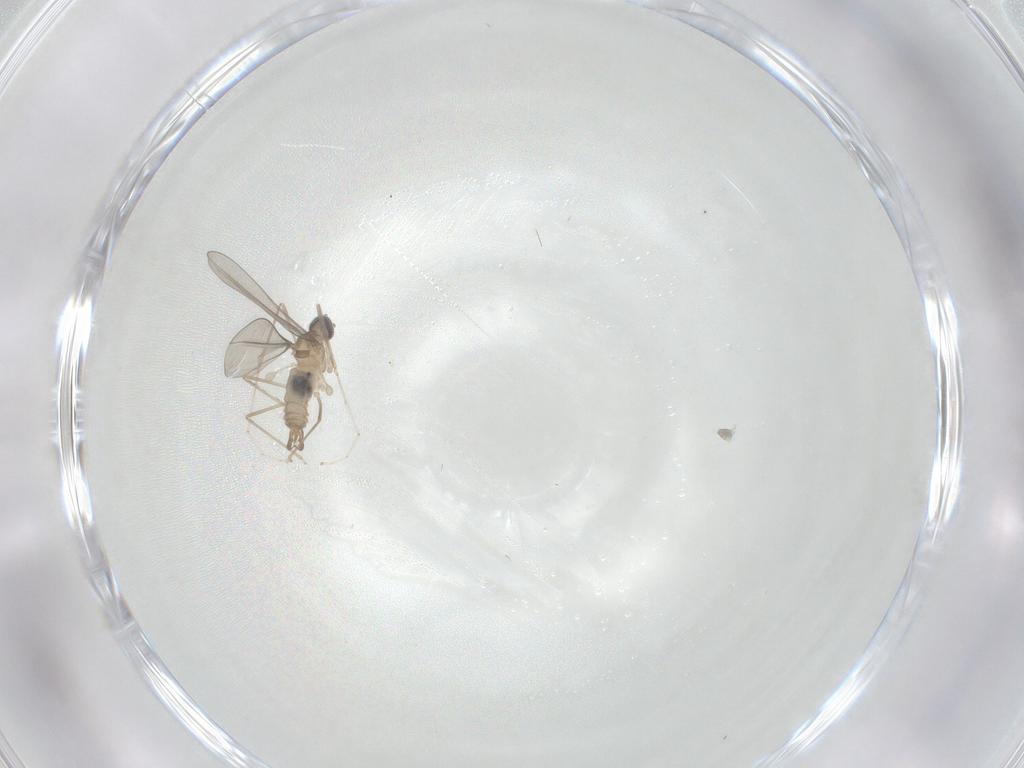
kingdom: Animalia
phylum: Arthropoda
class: Insecta
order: Diptera
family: Cecidomyiidae
